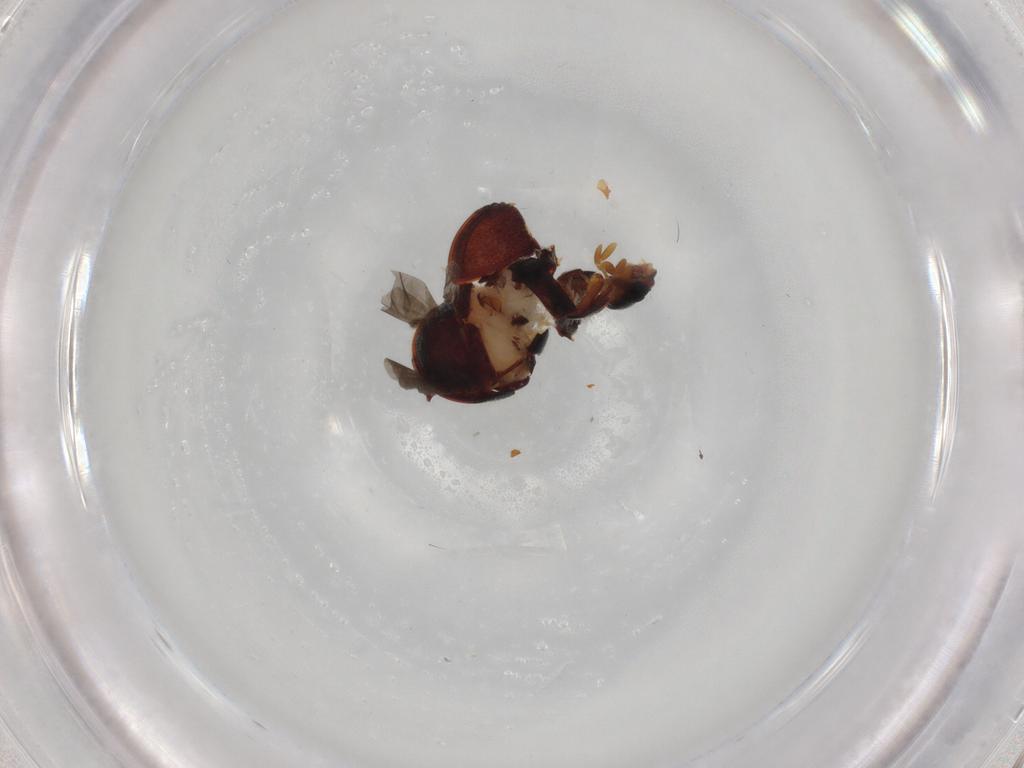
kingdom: Animalia
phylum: Arthropoda
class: Insecta
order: Coleoptera
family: Ptinidae
